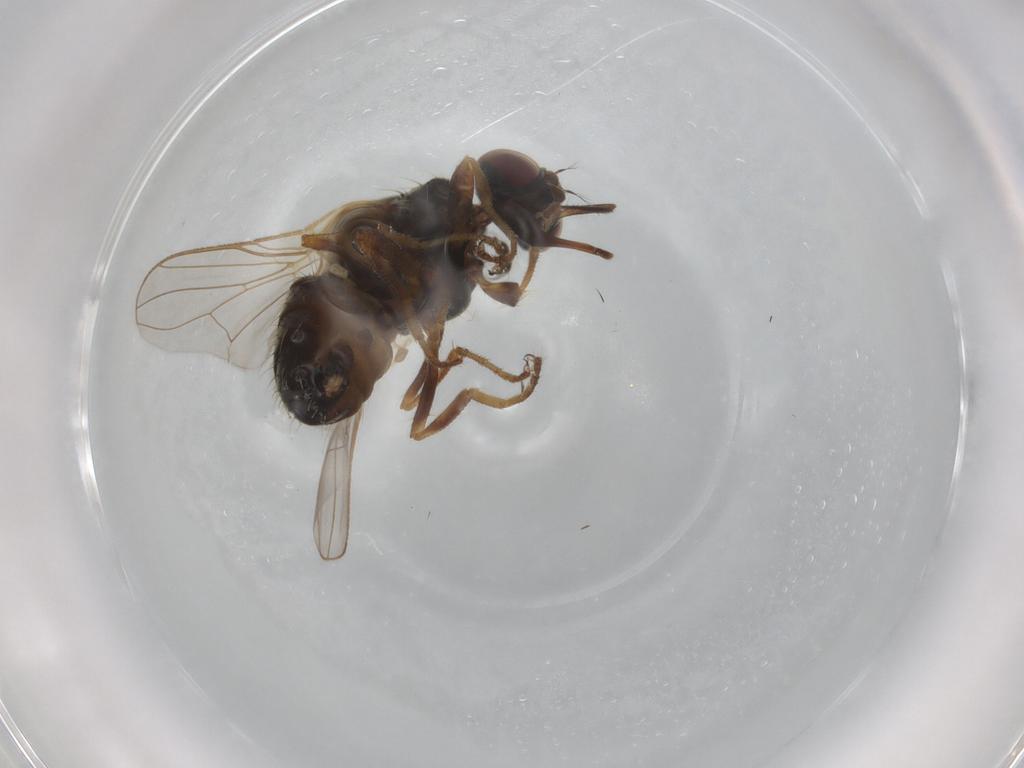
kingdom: Animalia
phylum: Arthropoda
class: Insecta
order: Diptera
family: Muscidae
